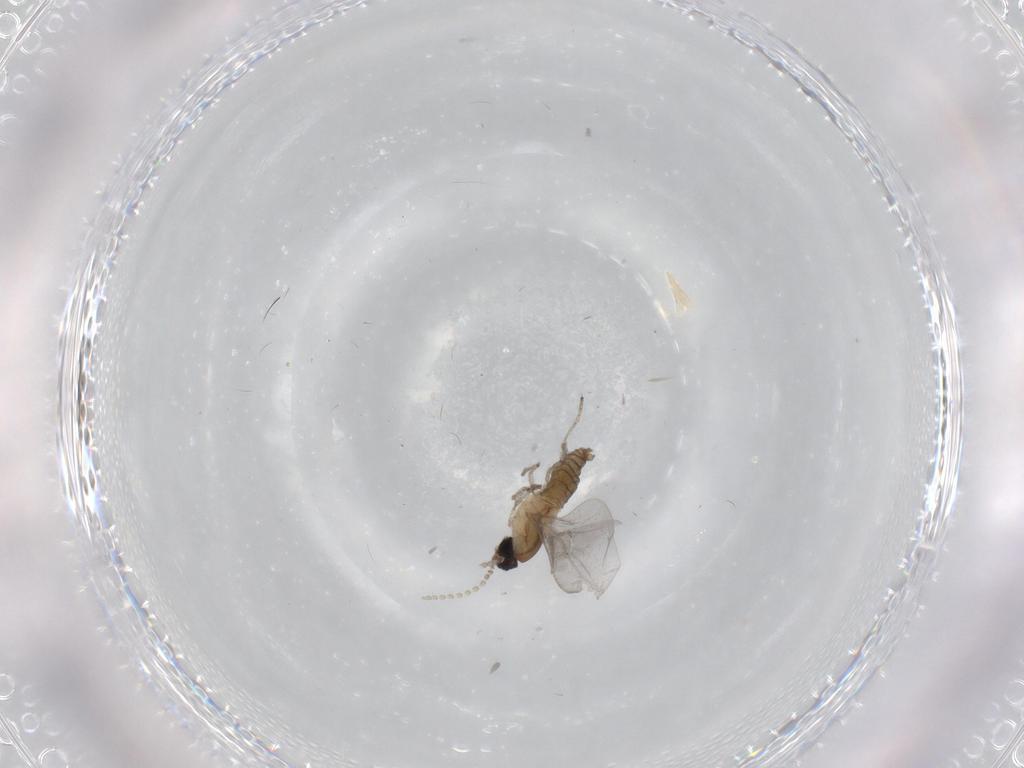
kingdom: Animalia
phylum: Arthropoda
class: Insecta
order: Diptera
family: Cecidomyiidae
